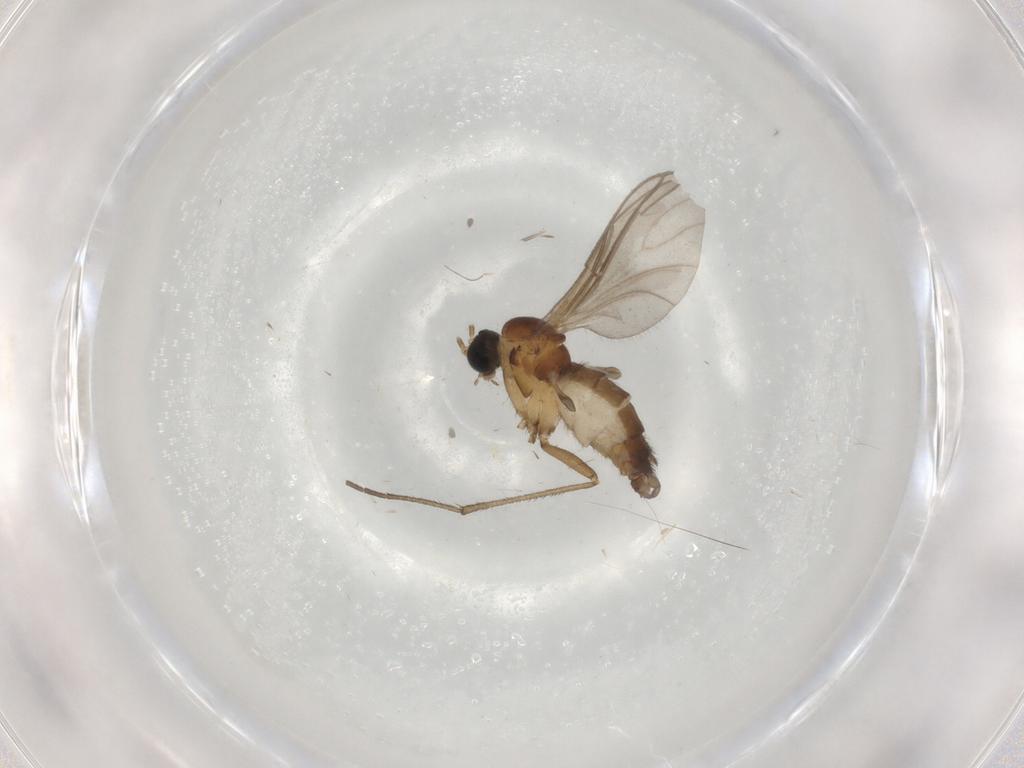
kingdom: Animalia
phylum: Arthropoda
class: Insecta
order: Diptera
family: Sciaridae
